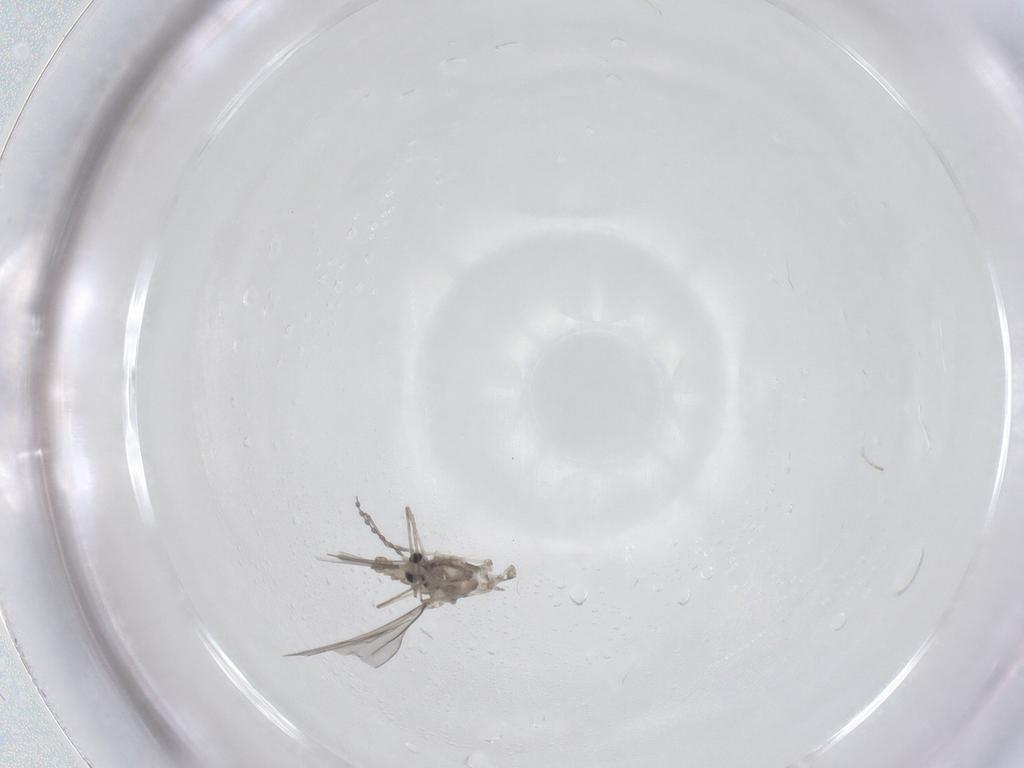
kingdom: Animalia
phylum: Arthropoda
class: Insecta
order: Diptera
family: Cecidomyiidae
